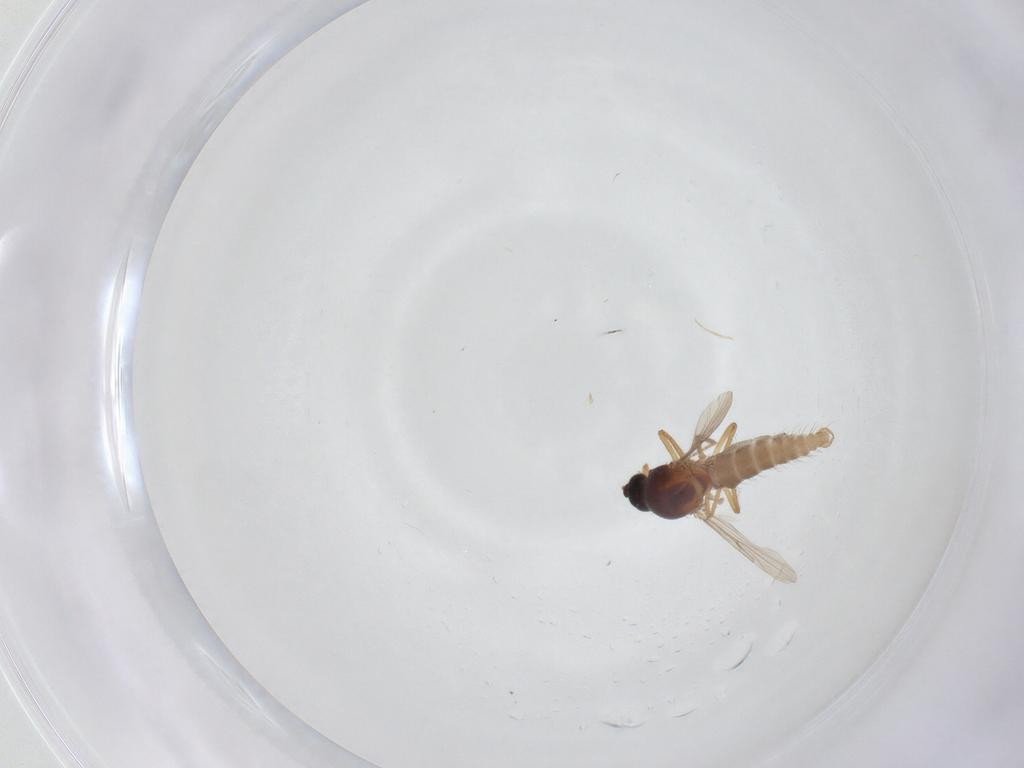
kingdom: Animalia
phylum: Arthropoda
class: Insecta
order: Diptera
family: Ceratopogonidae
